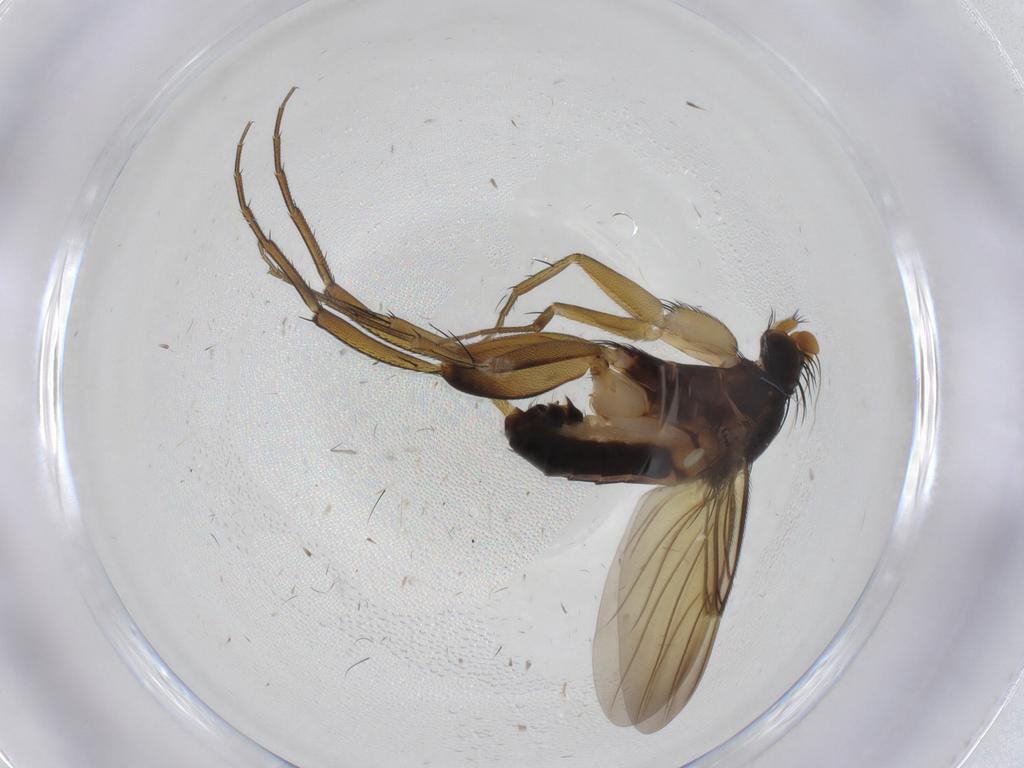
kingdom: Animalia
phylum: Arthropoda
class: Insecta
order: Diptera
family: Phoridae
